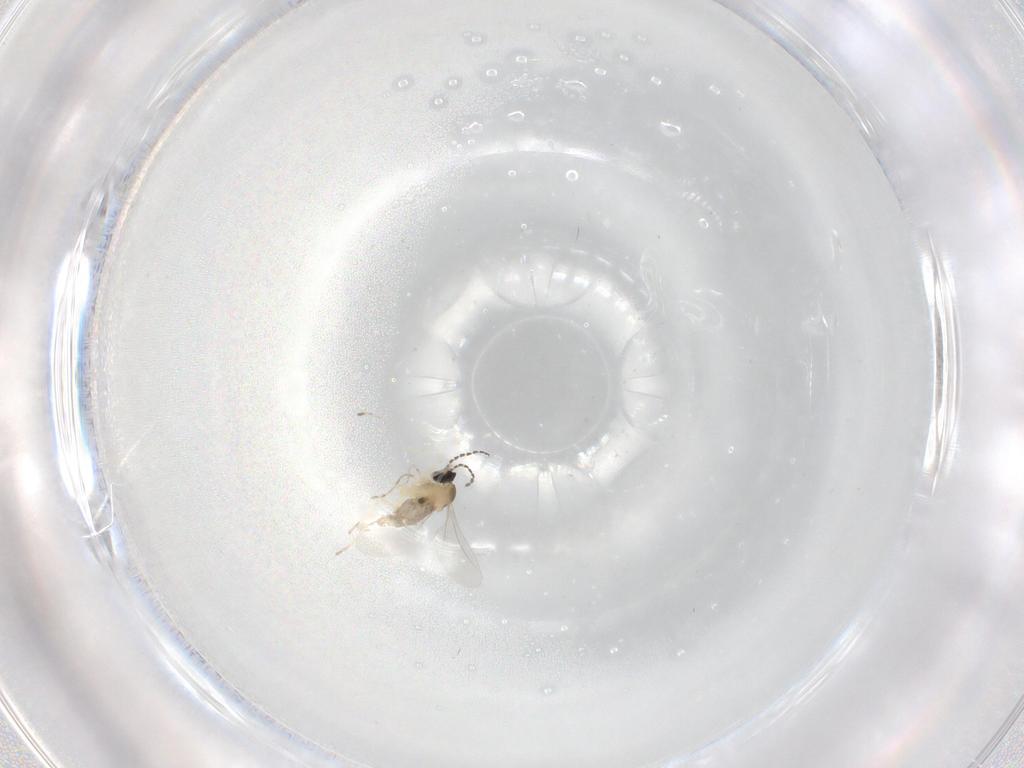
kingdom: Animalia
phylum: Arthropoda
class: Insecta
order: Diptera
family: Cecidomyiidae
